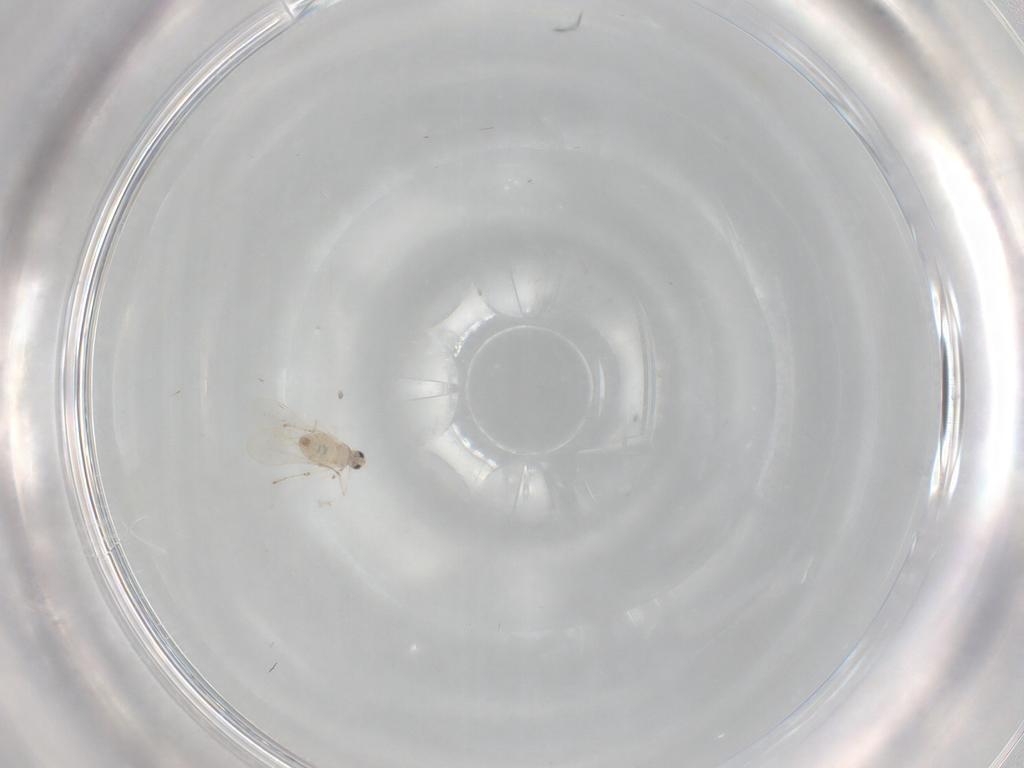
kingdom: Animalia
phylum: Arthropoda
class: Insecta
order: Diptera
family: Cecidomyiidae
